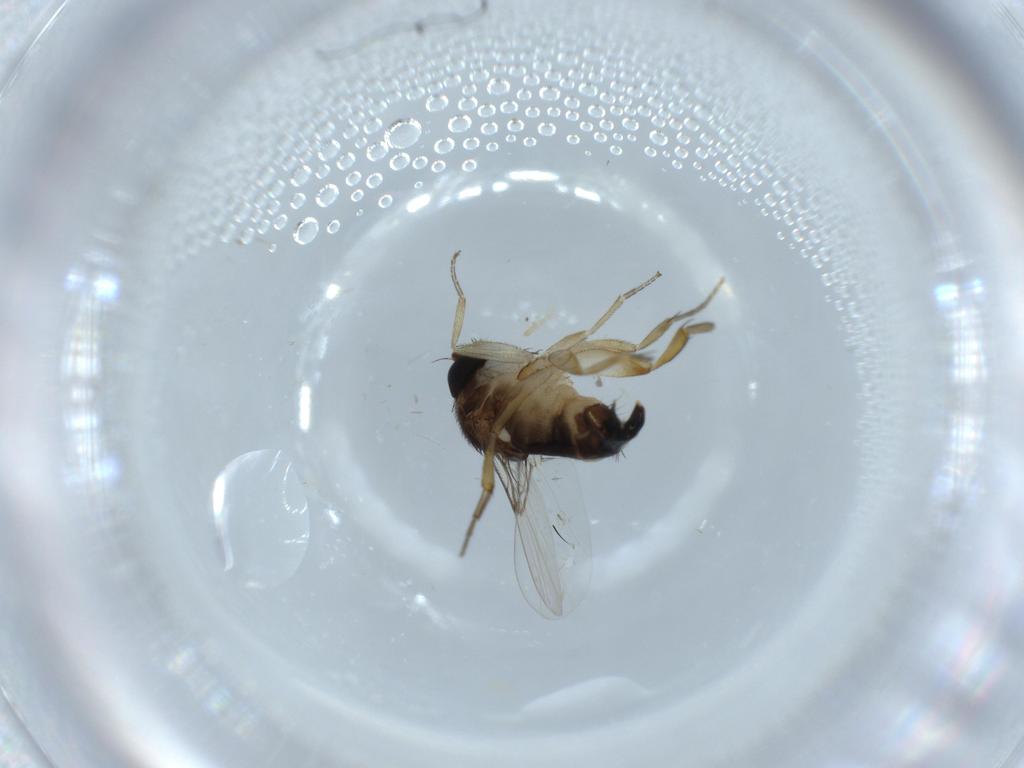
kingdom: Animalia
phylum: Arthropoda
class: Insecta
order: Diptera
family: Phoridae
